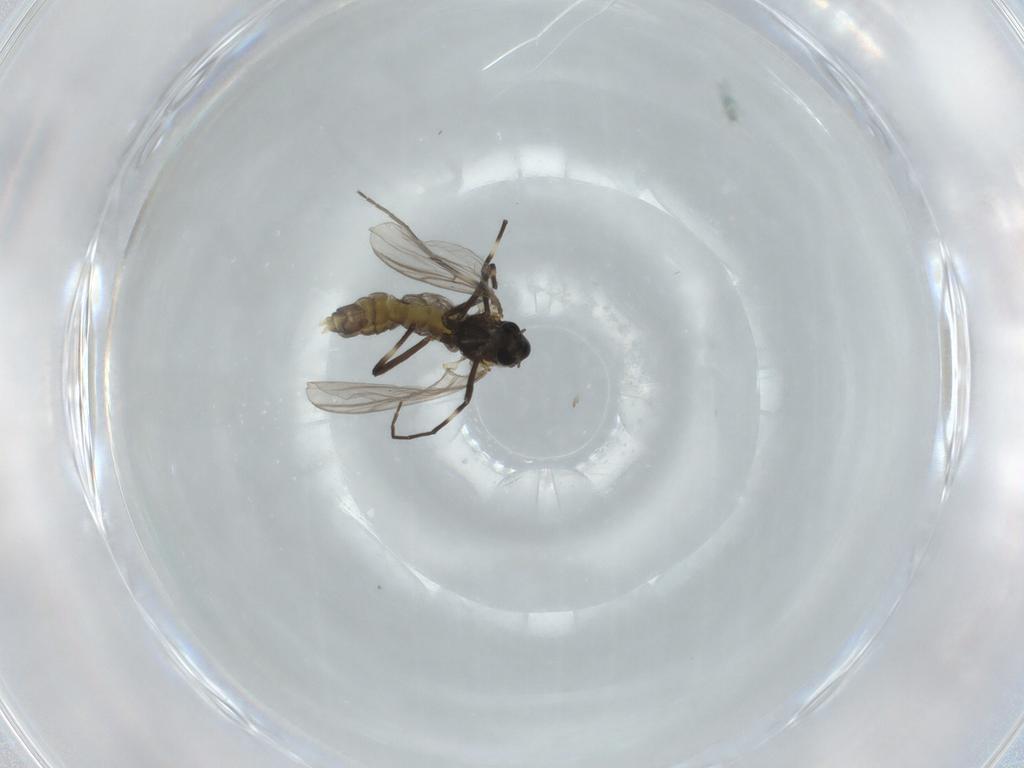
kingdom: Animalia
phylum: Arthropoda
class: Insecta
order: Diptera
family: Chironomidae
